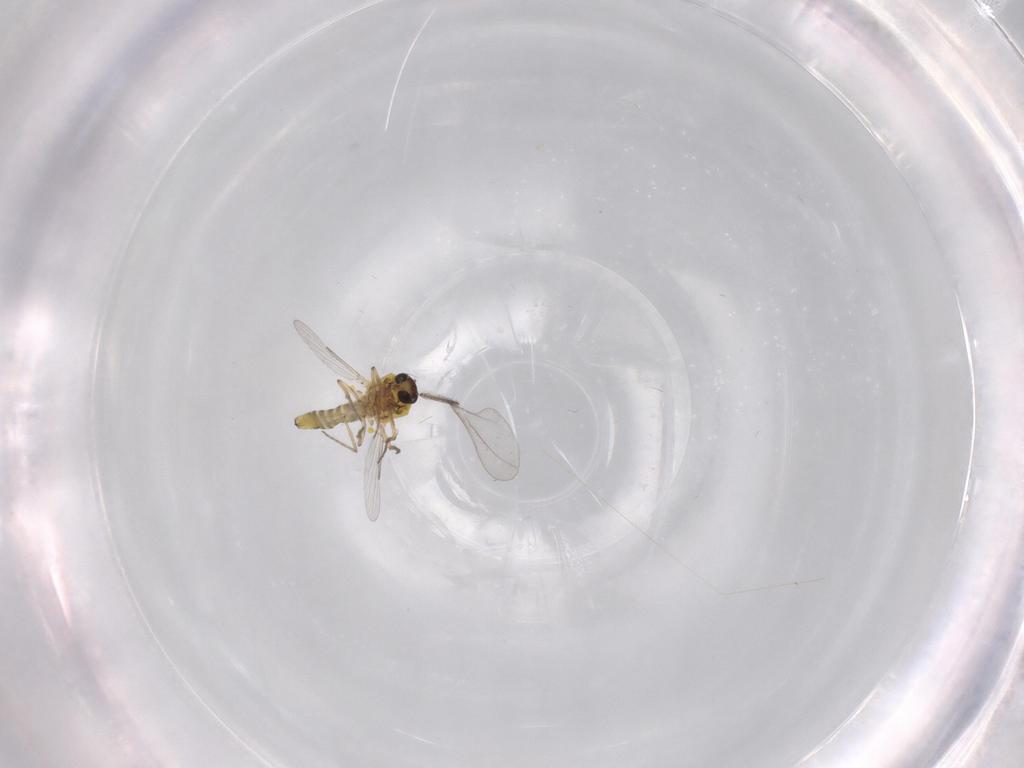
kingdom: Animalia
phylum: Arthropoda
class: Insecta
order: Diptera
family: Ceratopogonidae
